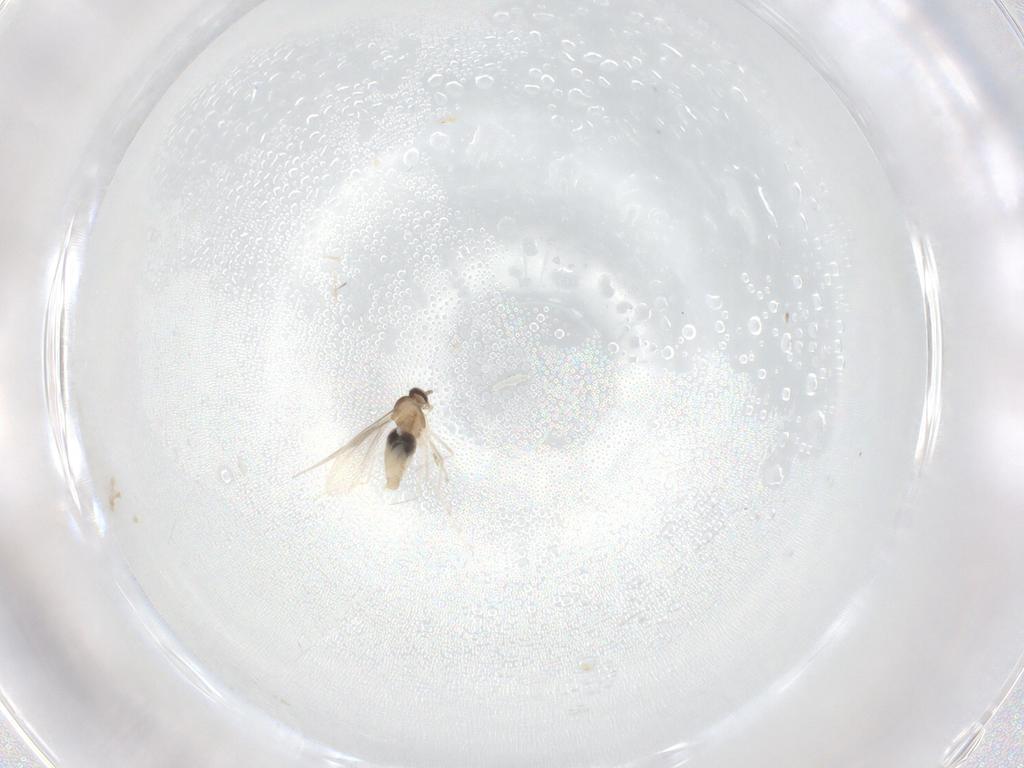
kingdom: Animalia
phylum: Arthropoda
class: Insecta
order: Diptera
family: Cecidomyiidae
